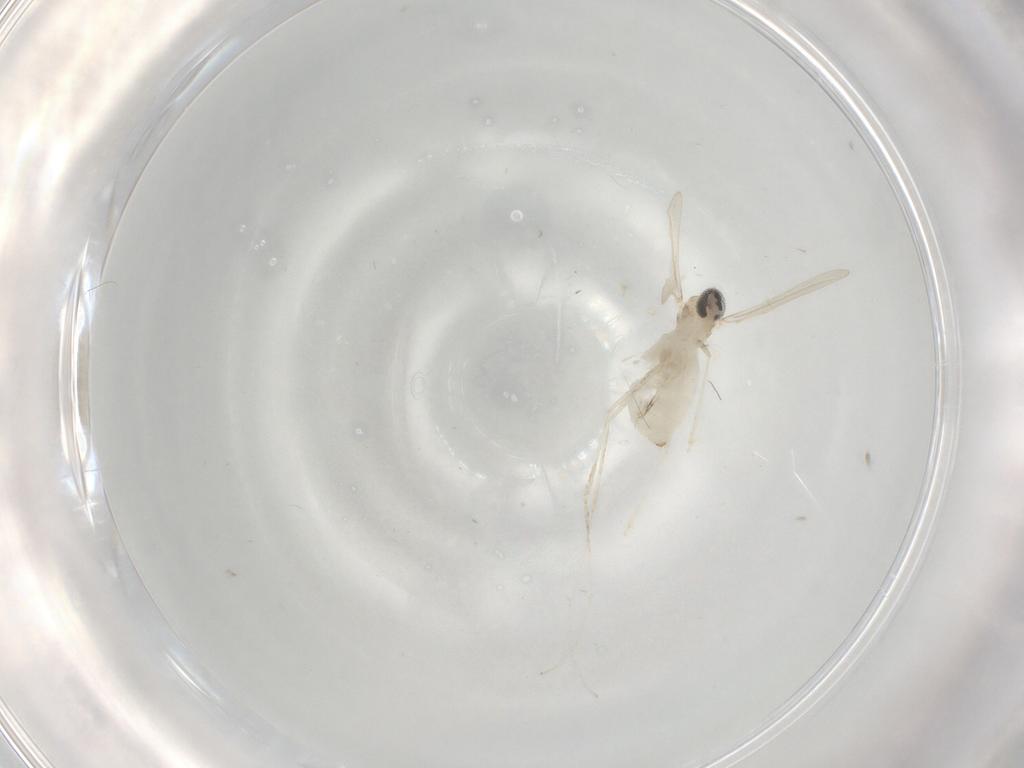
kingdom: Animalia
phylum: Arthropoda
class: Insecta
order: Diptera
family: Cecidomyiidae
